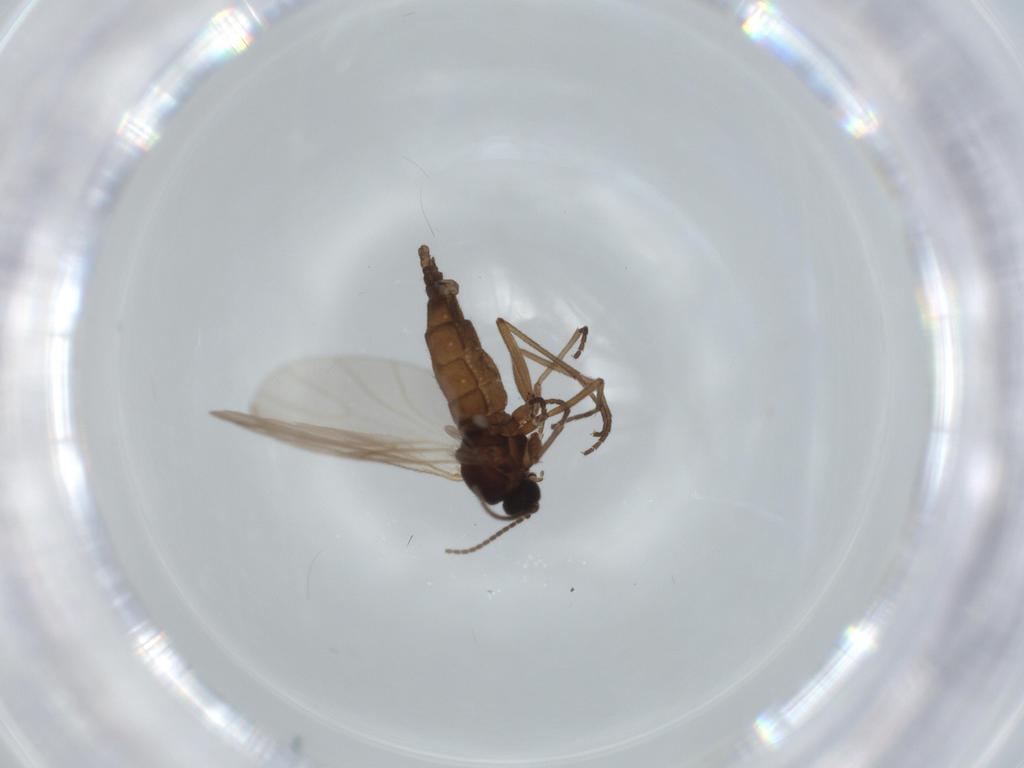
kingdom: Animalia
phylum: Arthropoda
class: Insecta
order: Diptera
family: Sciaridae
